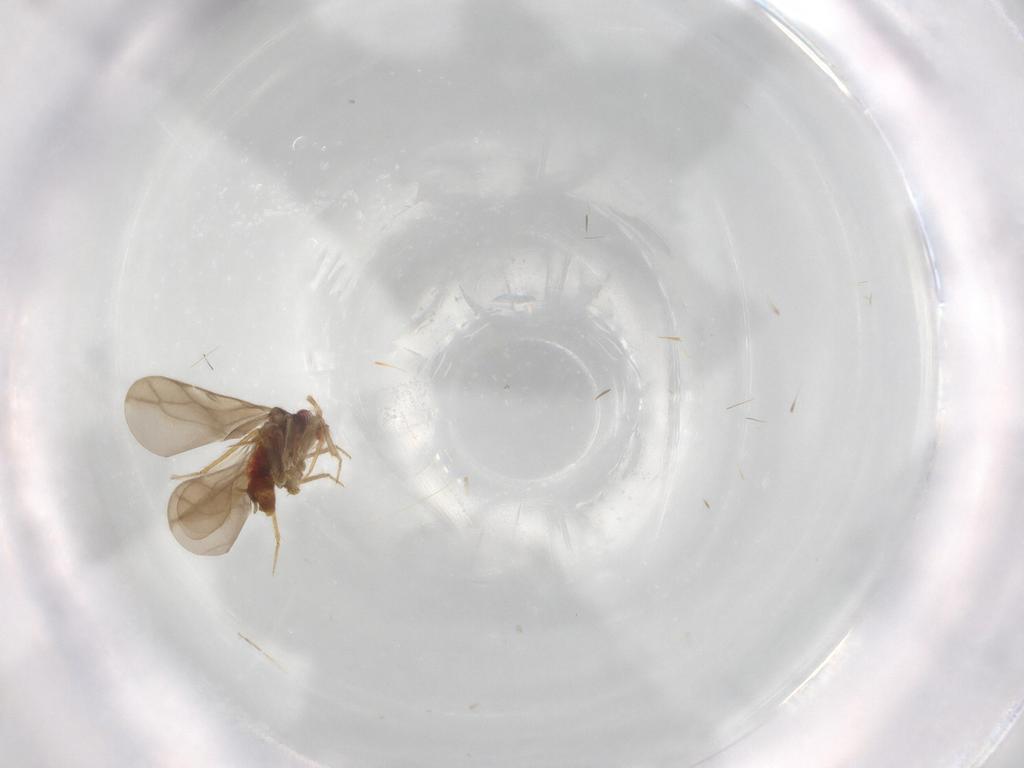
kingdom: Animalia
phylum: Arthropoda
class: Insecta
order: Hemiptera
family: Ceratocombidae
